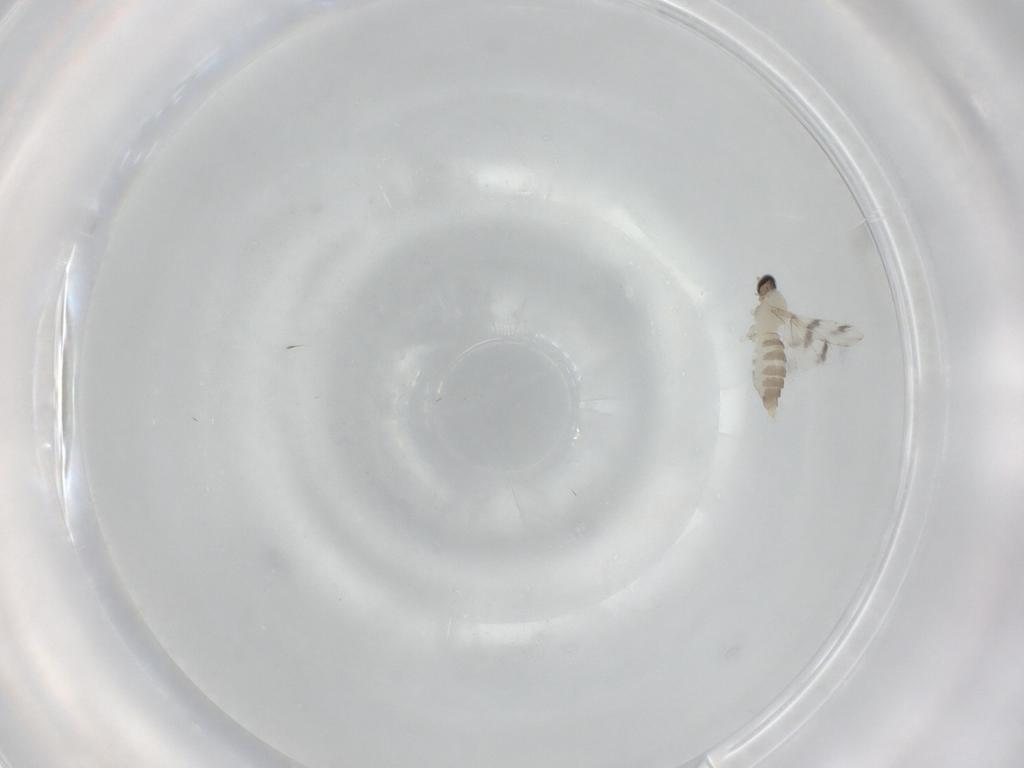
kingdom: Animalia
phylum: Arthropoda
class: Insecta
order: Diptera
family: Cecidomyiidae
